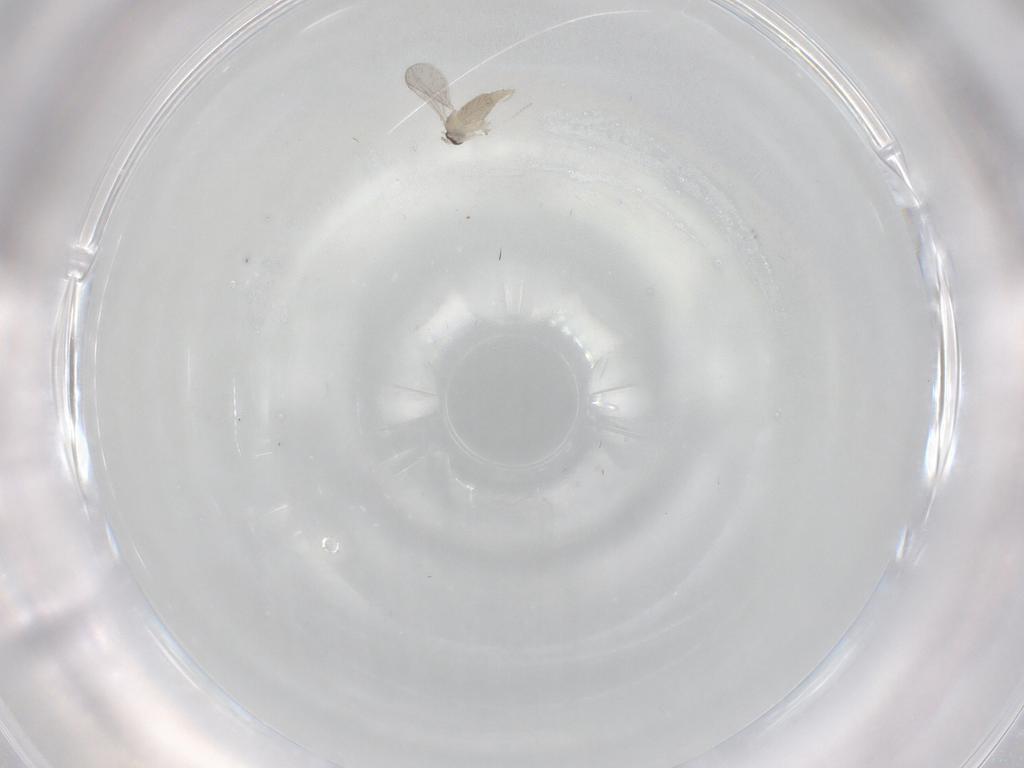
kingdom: Animalia
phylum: Arthropoda
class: Insecta
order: Diptera
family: Cecidomyiidae
